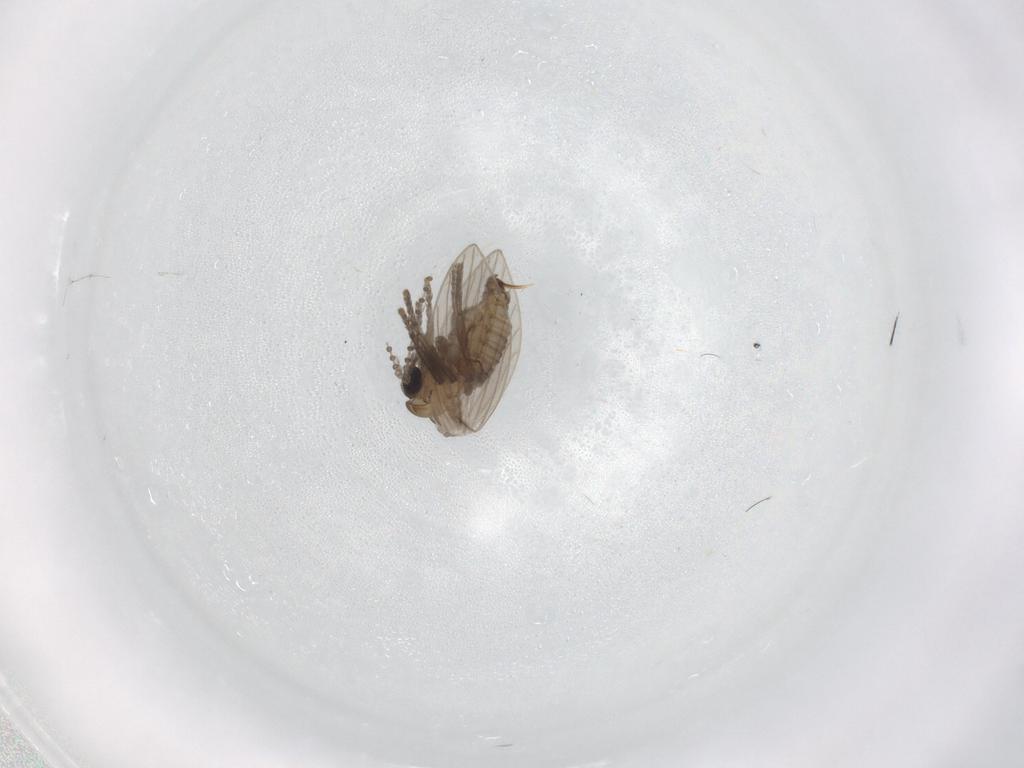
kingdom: Animalia
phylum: Arthropoda
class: Insecta
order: Diptera
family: Psychodidae
